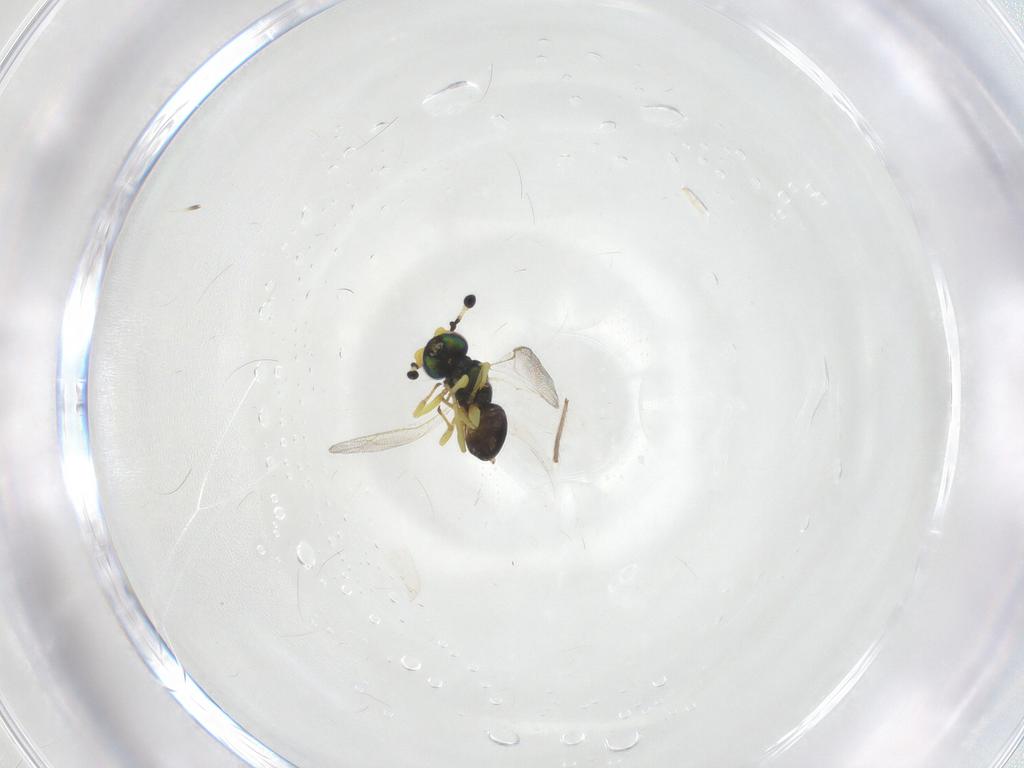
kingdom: Animalia
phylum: Arthropoda
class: Insecta
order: Hymenoptera
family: Pteromalidae
